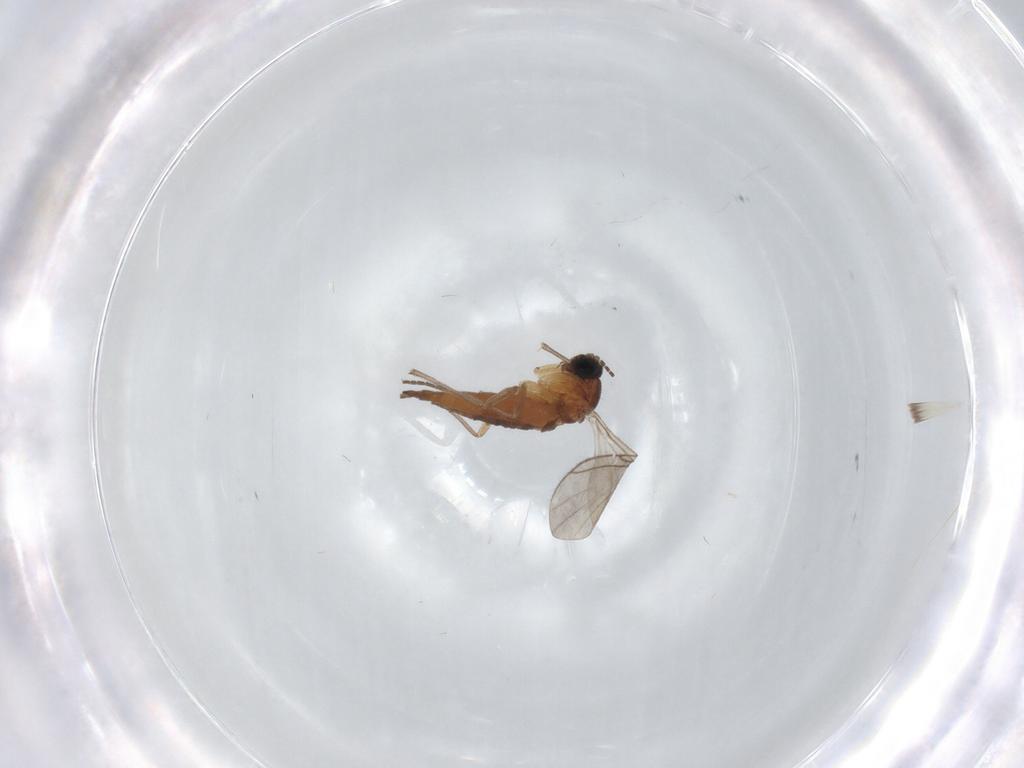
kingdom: Animalia
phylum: Arthropoda
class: Insecta
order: Diptera
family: Sciaridae
